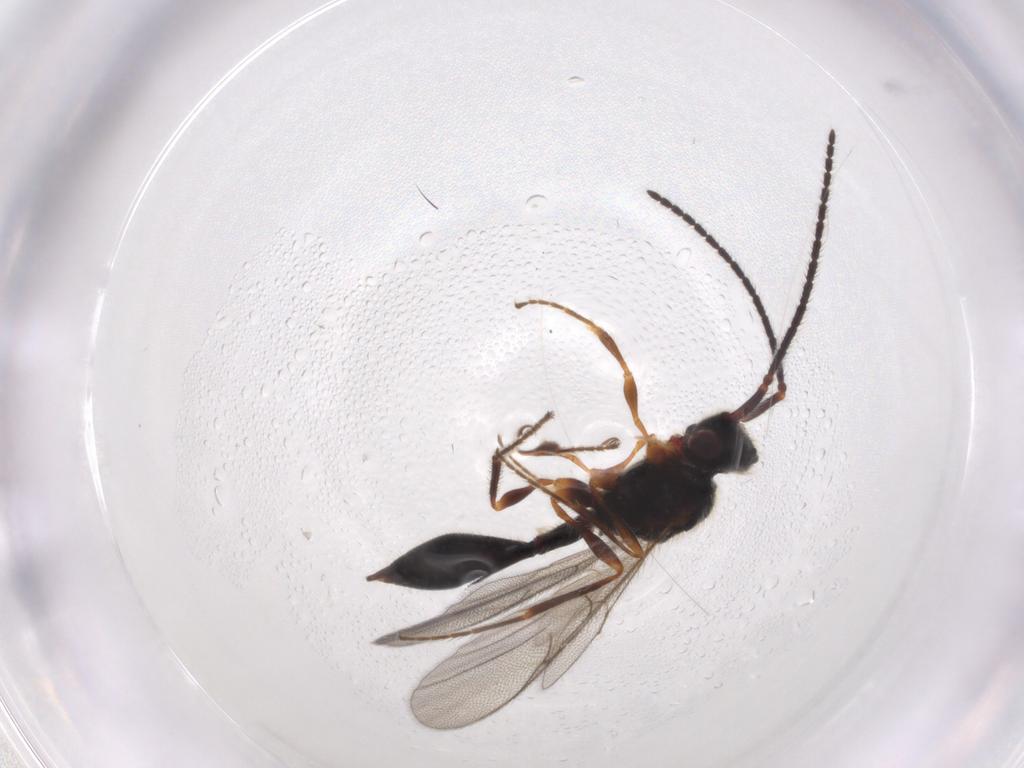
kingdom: Animalia
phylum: Arthropoda
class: Insecta
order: Hymenoptera
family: Diapriidae
